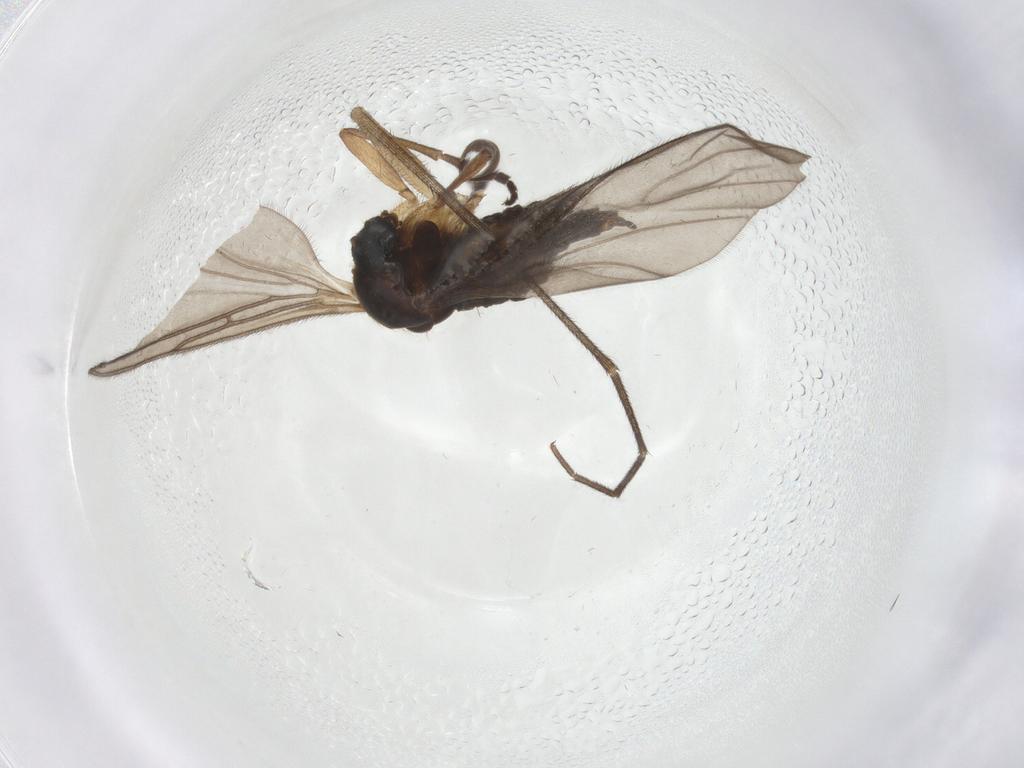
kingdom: Animalia
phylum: Arthropoda
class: Insecta
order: Diptera
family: Sciaridae
